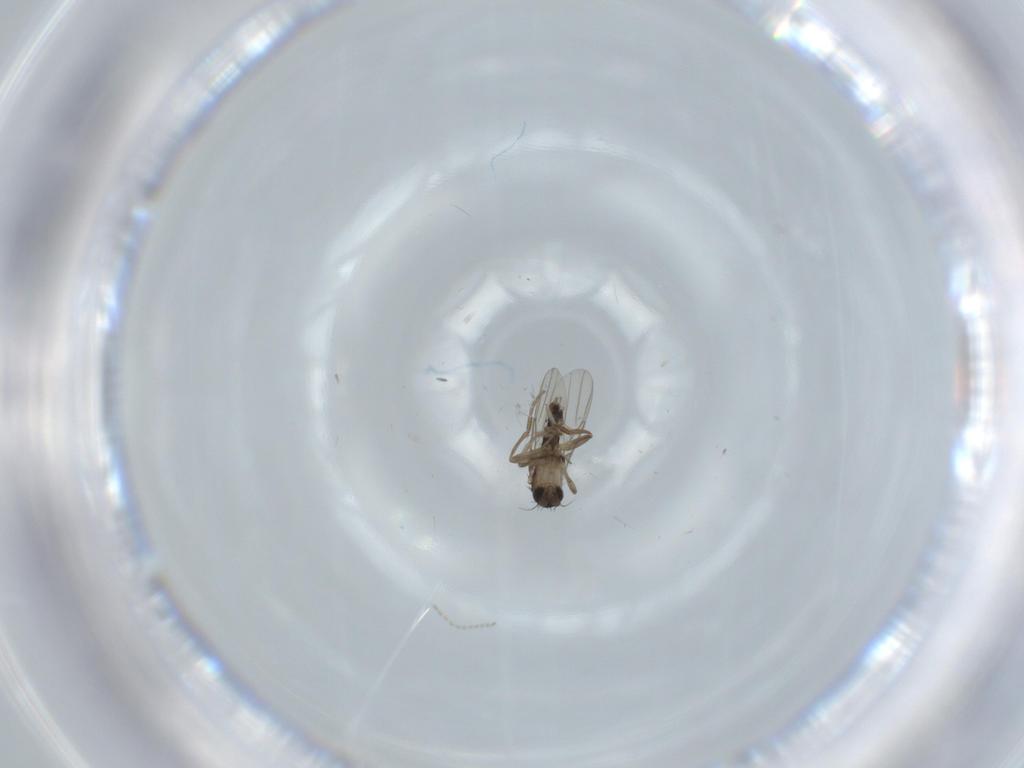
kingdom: Animalia
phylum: Arthropoda
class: Insecta
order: Diptera
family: Phoridae
